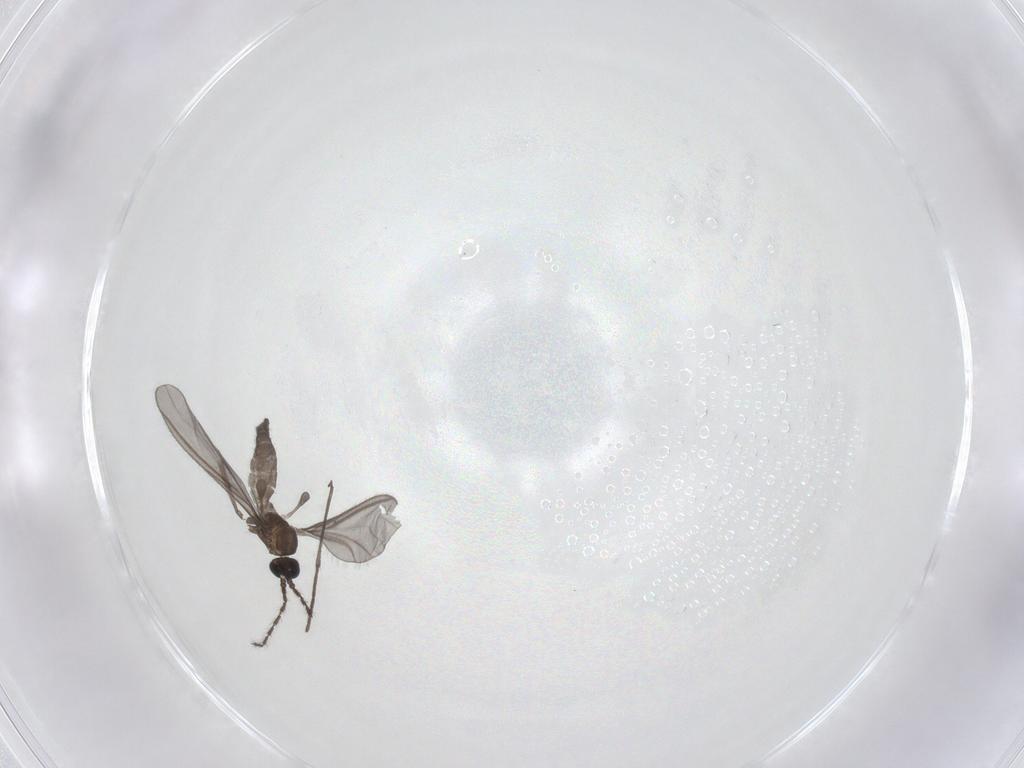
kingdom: Animalia
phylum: Arthropoda
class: Insecta
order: Diptera
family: Sciaridae
